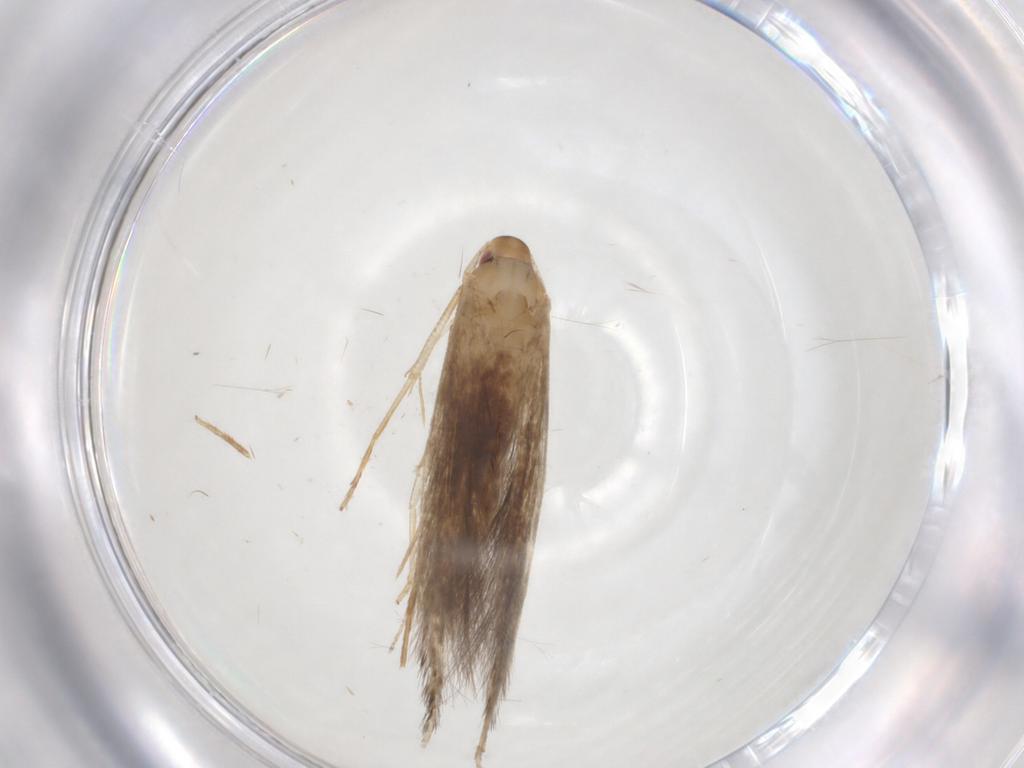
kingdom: Animalia
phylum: Arthropoda
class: Insecta
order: Lepidoptera
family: Cosmopterigidae
